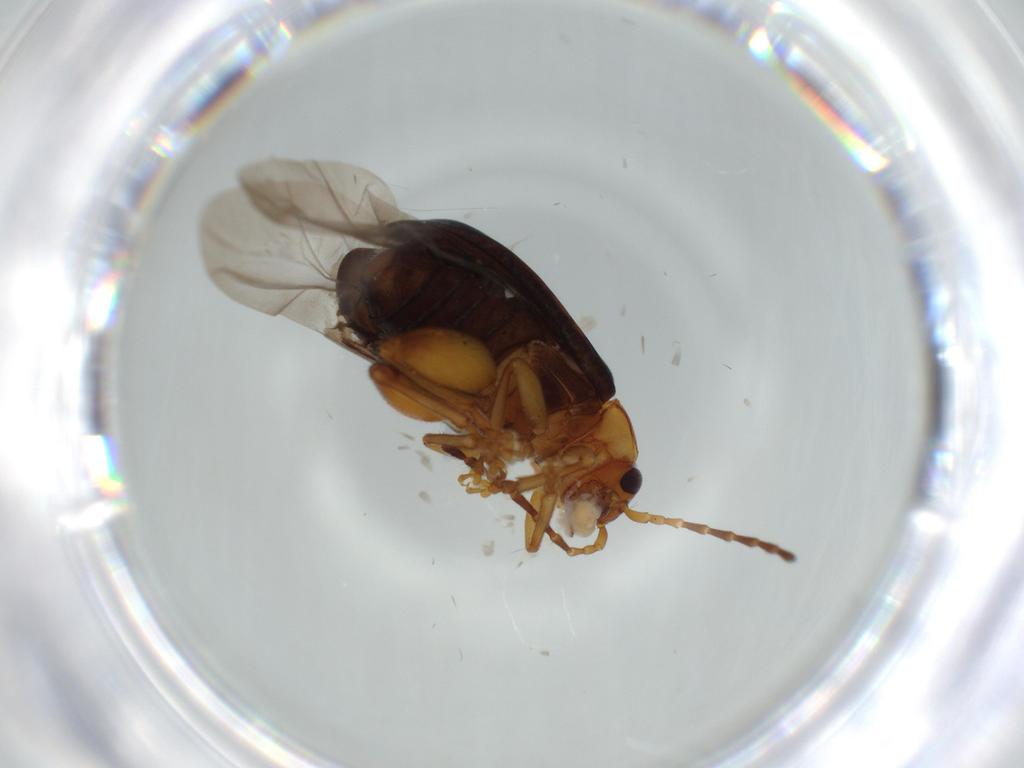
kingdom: Animalia
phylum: Arthropoda
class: Insecta
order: Coleoptera
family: Chrysomelidae
